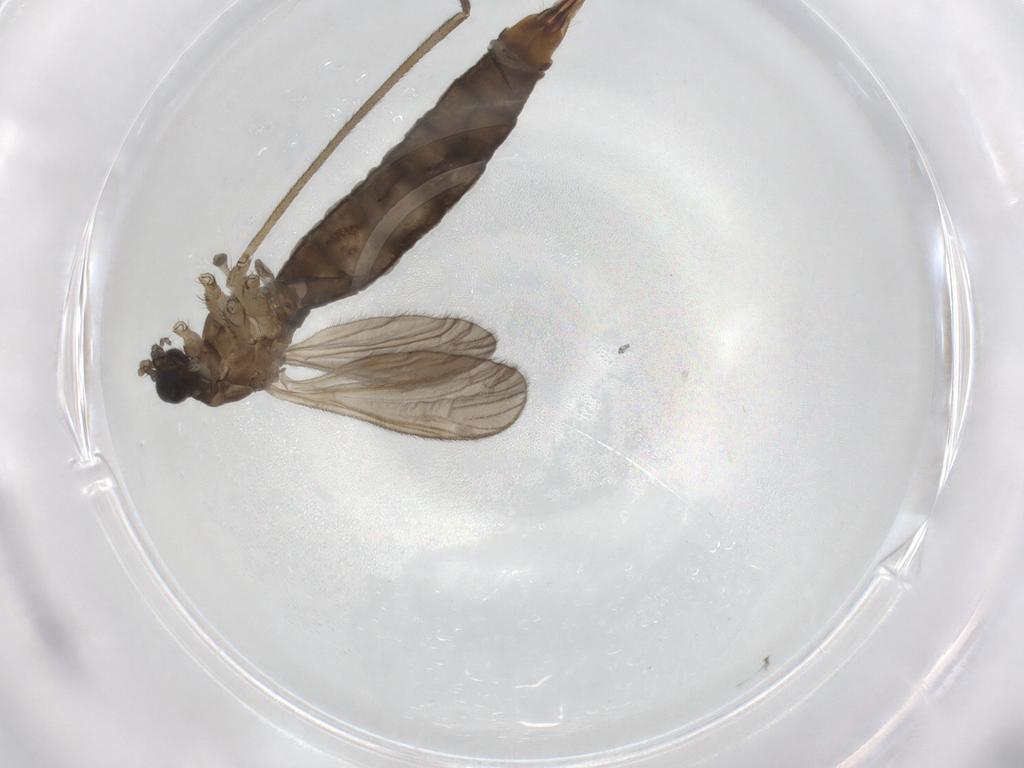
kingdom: Animalia
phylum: Arthropoda
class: Insecta
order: Diptera
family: Limoniidae
